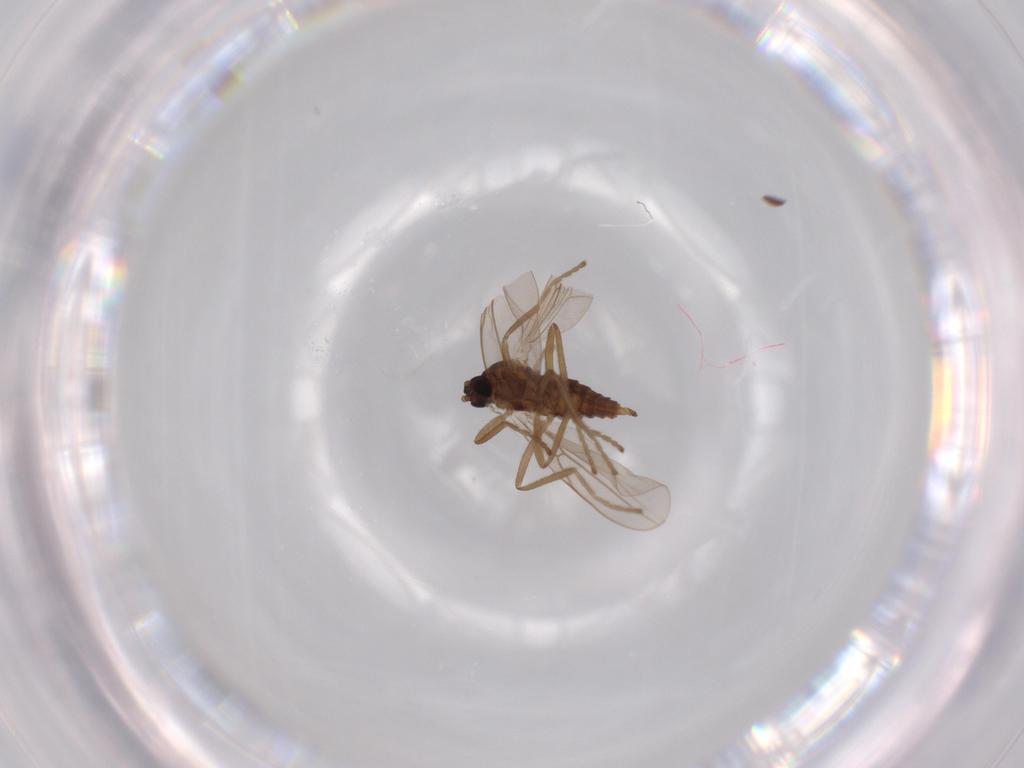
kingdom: Animalia
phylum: Arthropoda
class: Insecta
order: Diptera
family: Cecidomyiidae
